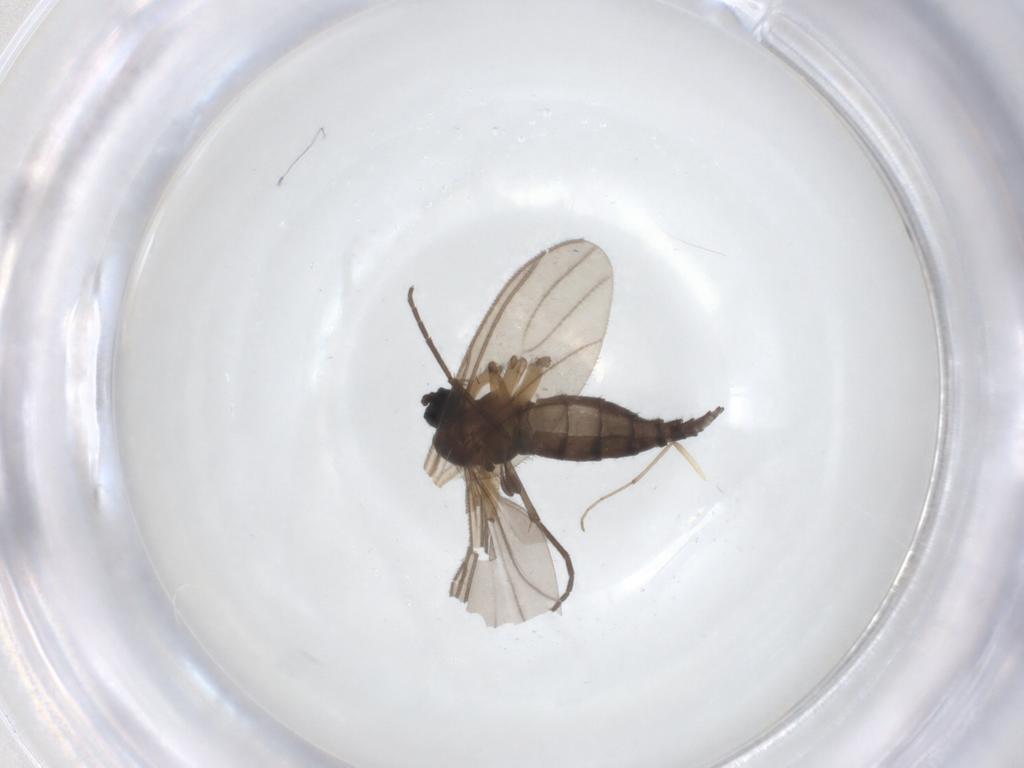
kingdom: Animalia
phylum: Arthropoda
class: Insecta
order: Diptera
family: Sciaridae
